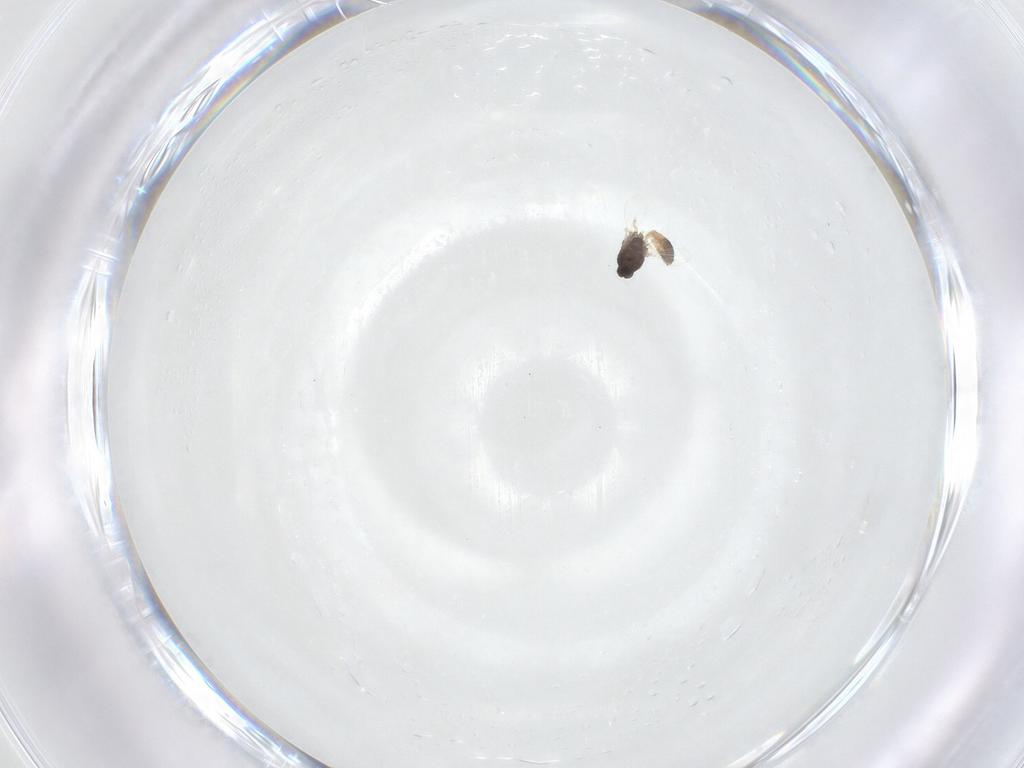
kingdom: Animalia
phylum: Arthropoda
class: Insecta
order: Diptera
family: Chironomidae
